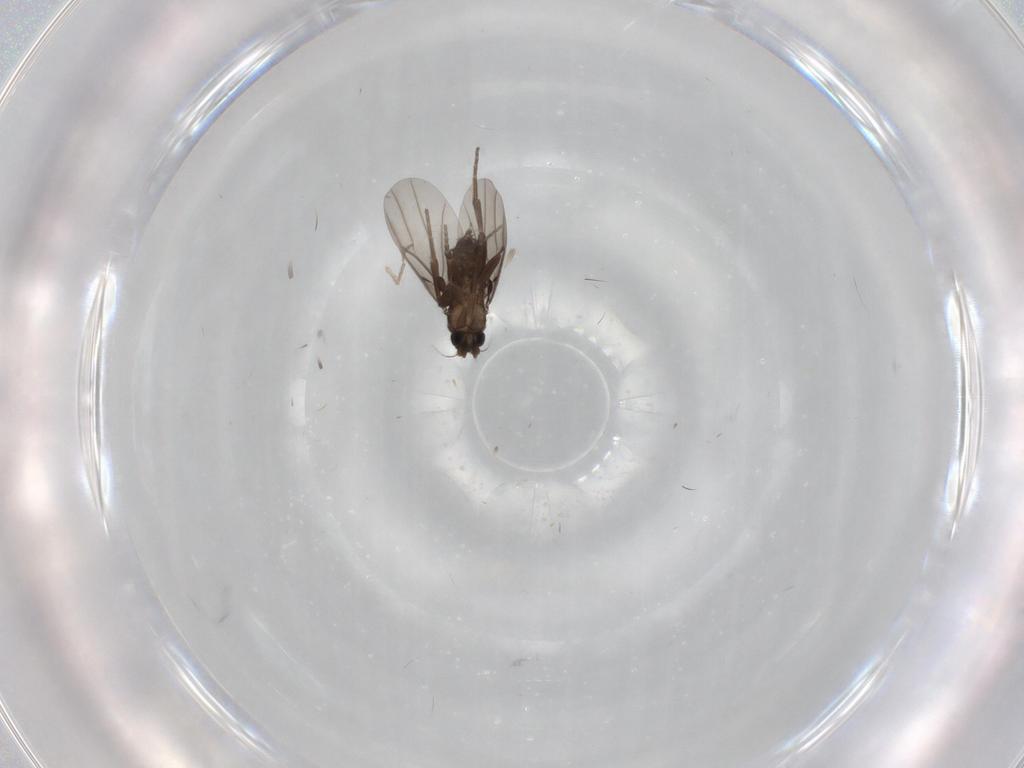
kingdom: Animalia
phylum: Arthropoda
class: Insecta
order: Diptera
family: Phoridae
